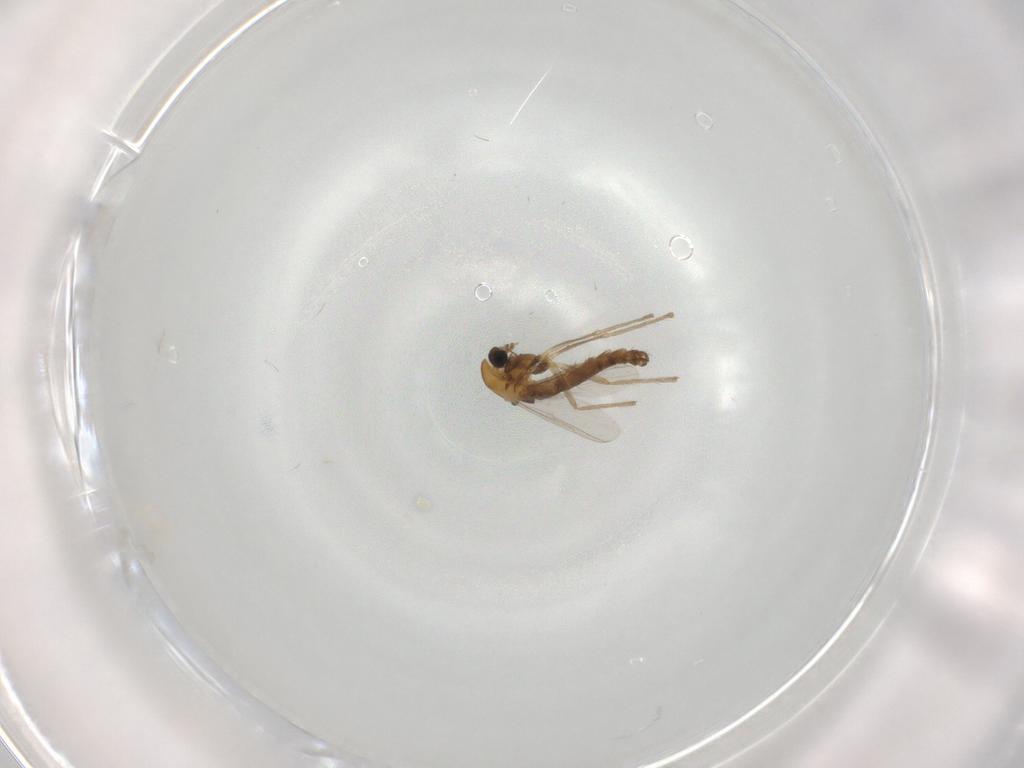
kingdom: Animalia
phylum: Arthropoda
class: Insecta
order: Diptera
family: Chironomidae
